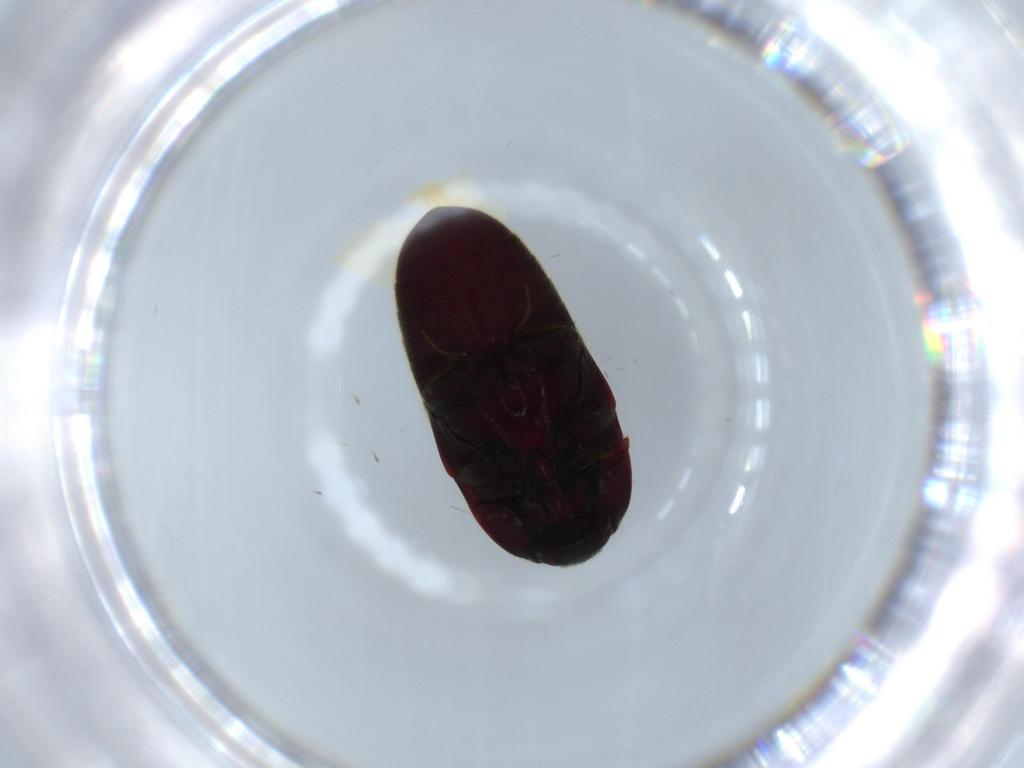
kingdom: Animalia
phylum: Arthropoda
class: Insecta
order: Coleoptera
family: Throscidae
